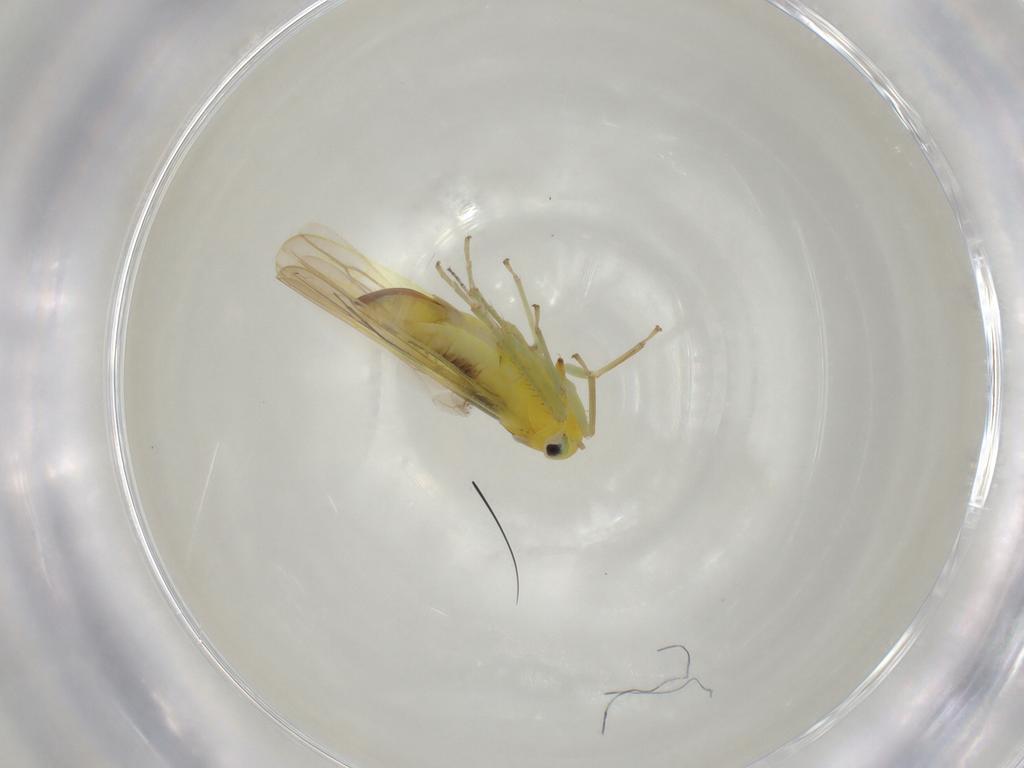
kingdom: Animalia
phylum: Arthropoda
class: Insecta
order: Hemiptera
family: Cicadellidae
